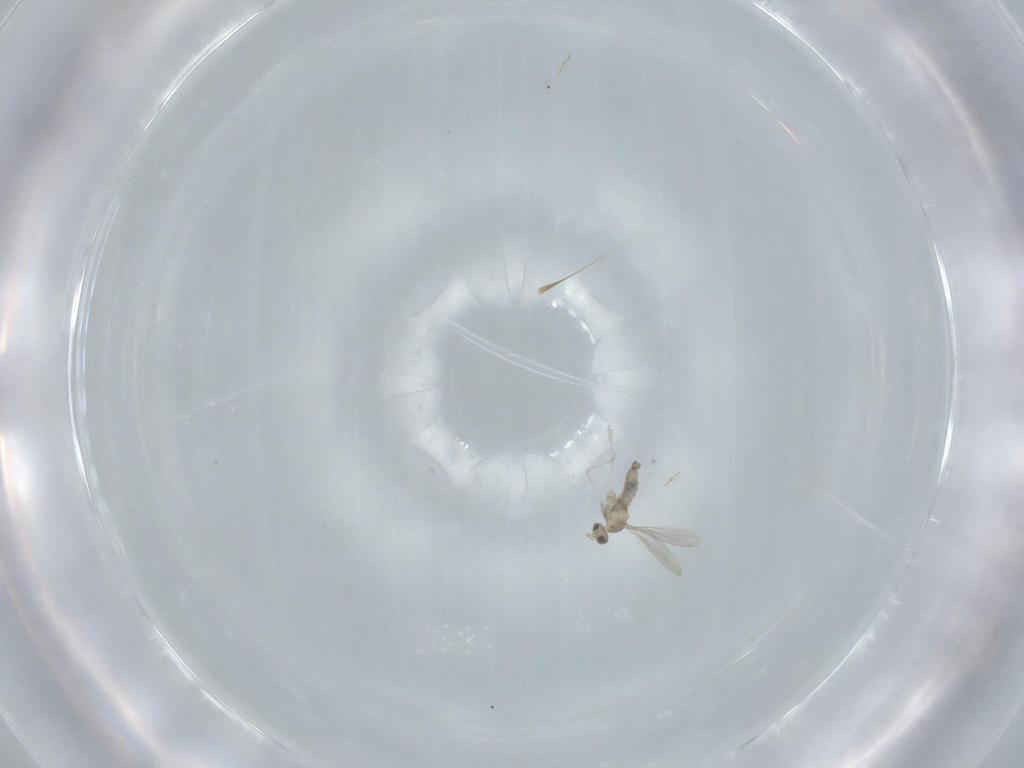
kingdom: Animalia
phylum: Arthropoda
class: Insecta
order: Diptera
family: Cecidomyiidae
